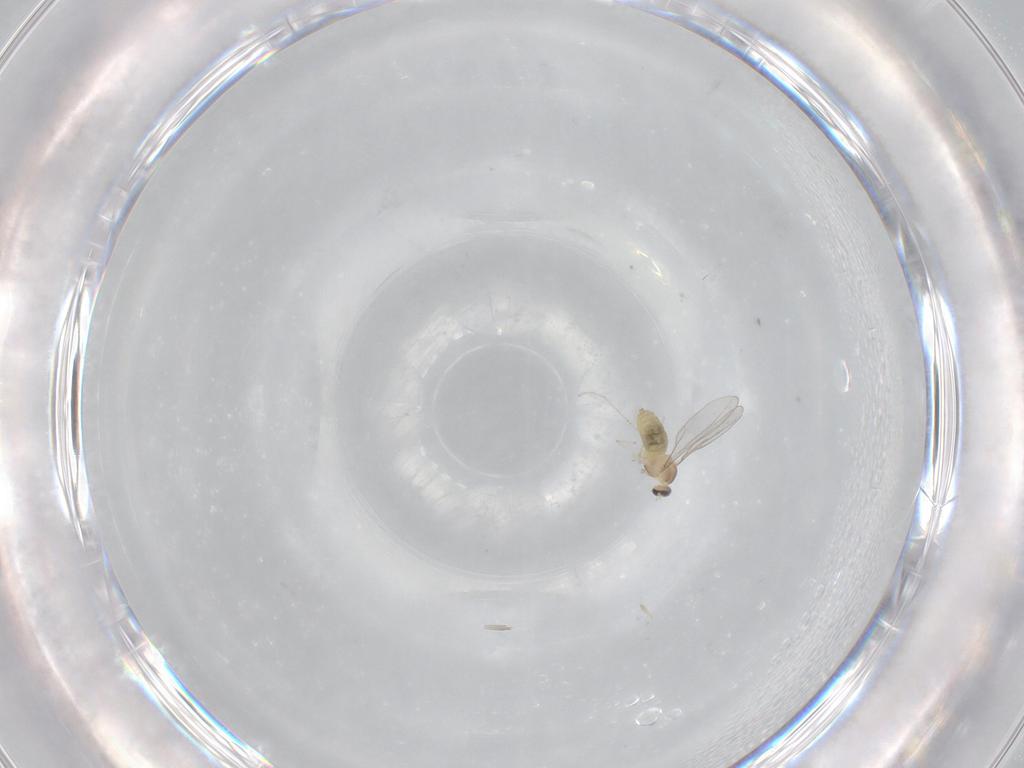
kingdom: Animalia
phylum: Arthropoda
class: Insecta
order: Diptera
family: Cecidomyiidae
